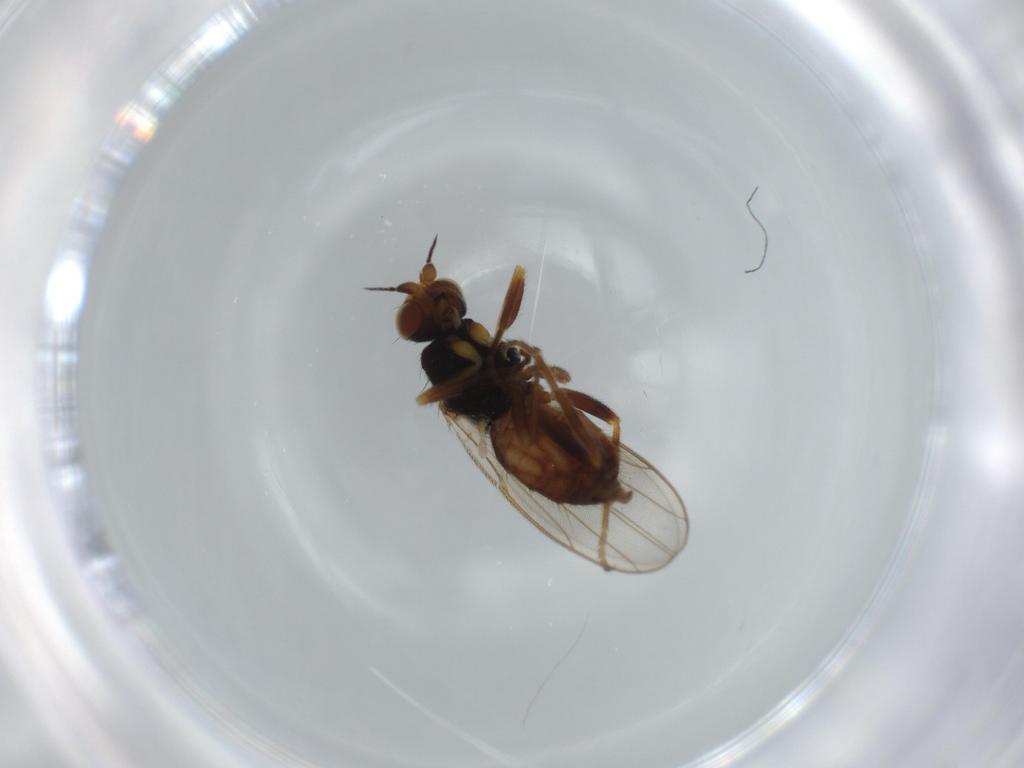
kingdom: Animalia
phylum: Arthropoda
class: Insecta
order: Diptera
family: Chloropidae
